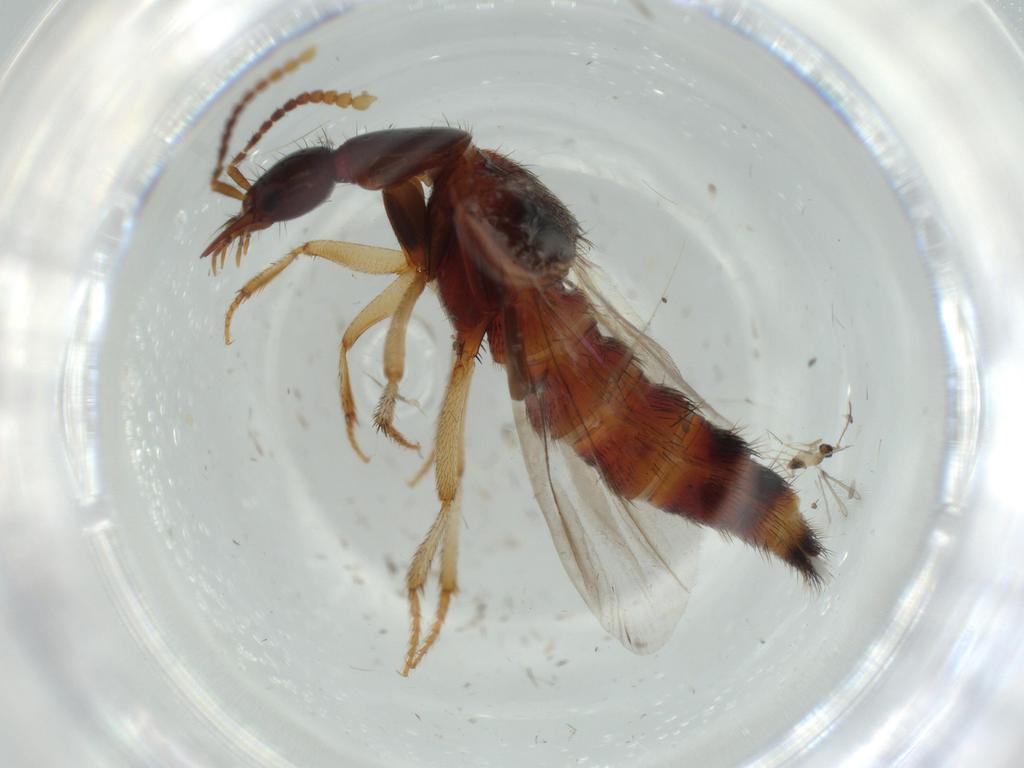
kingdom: Animalia
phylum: Arthropoda
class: Insecta
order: Coleoptera
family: Staphylinidae
